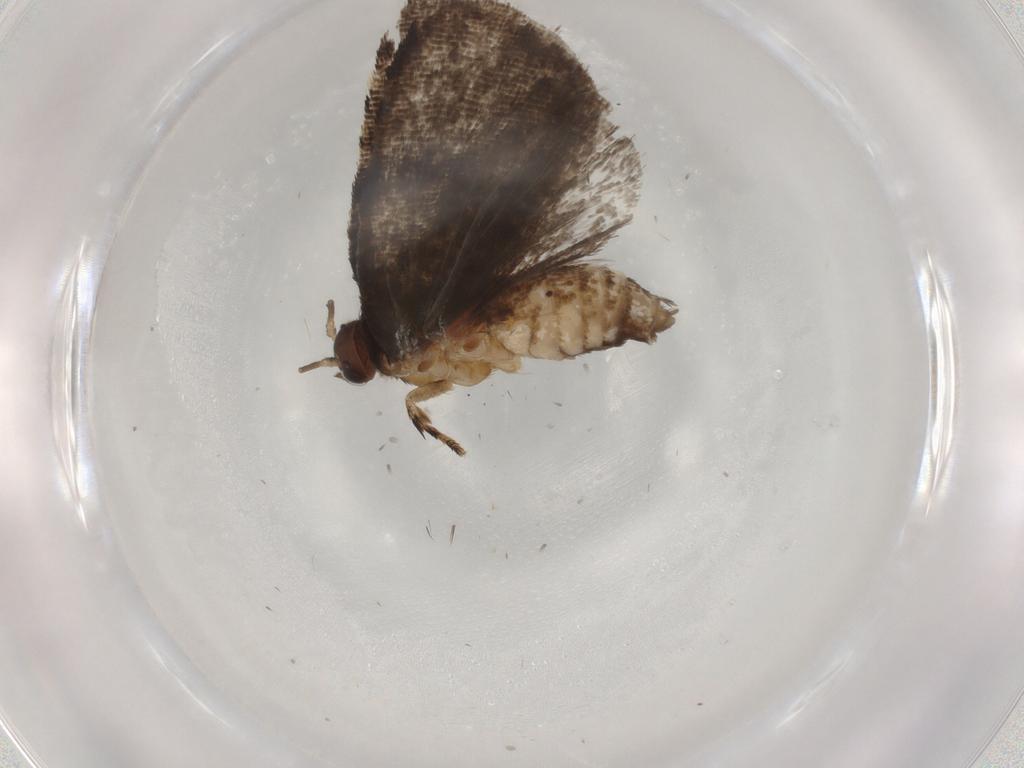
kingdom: Animalia
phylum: Arthropoda
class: Insecta
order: Lepidoptera
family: Tortricidae
